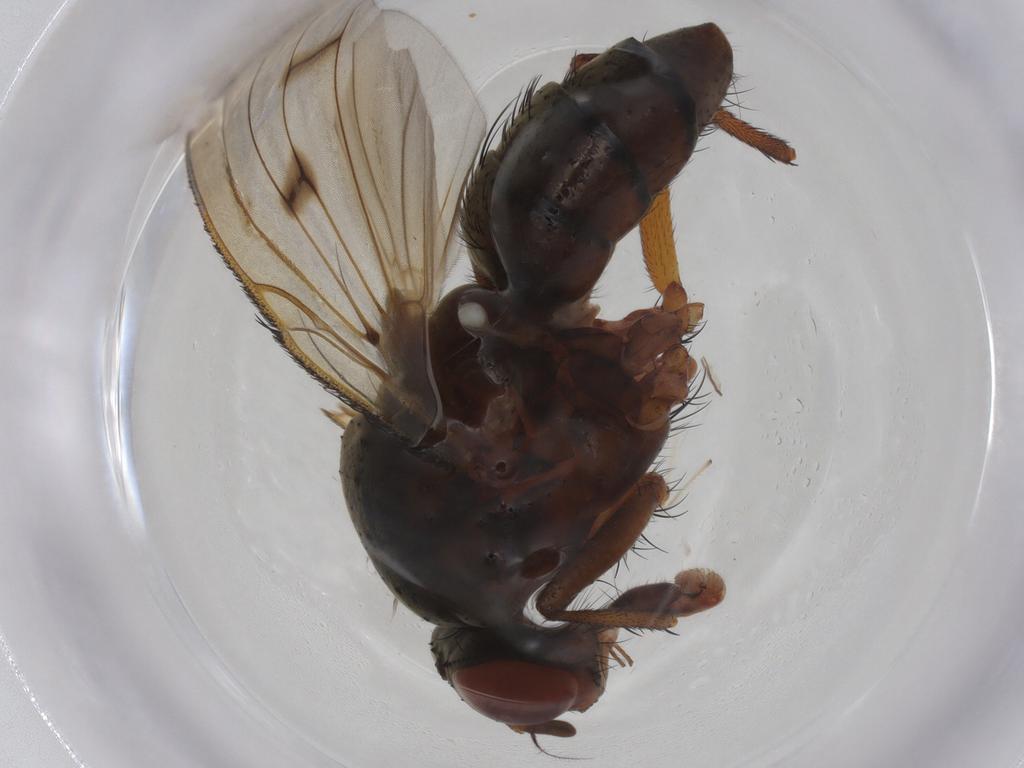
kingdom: Animalia
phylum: Arthropoda
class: Insecta
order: Diptera
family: Anthomyiidae
